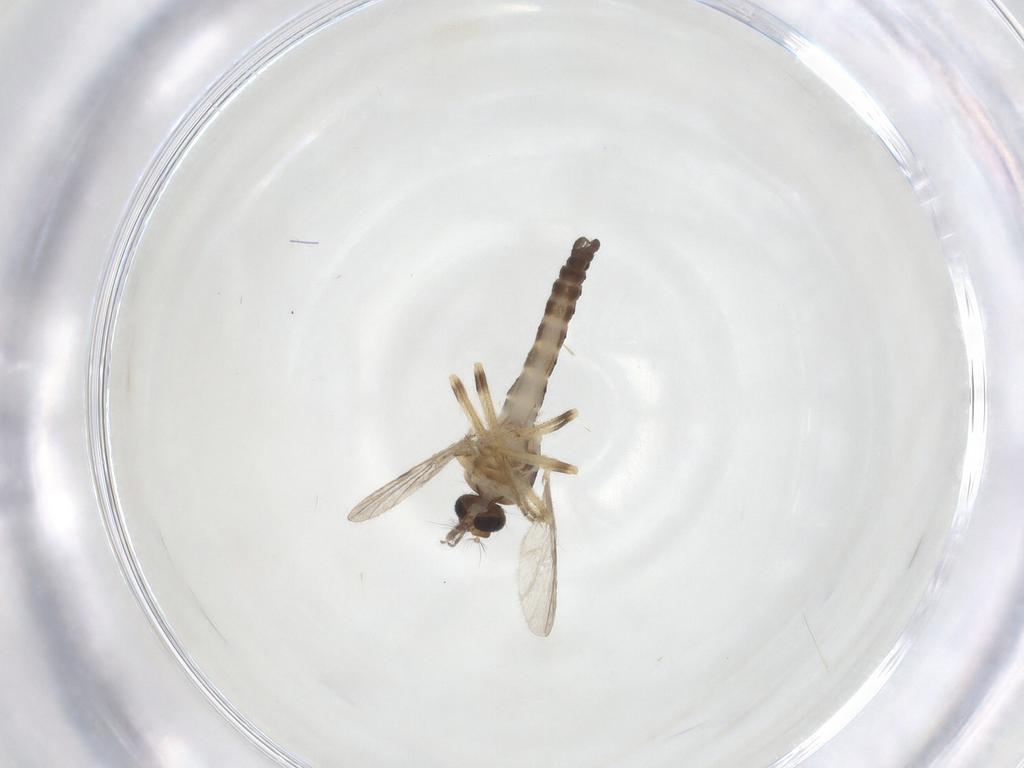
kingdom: Animalia
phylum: Arthropoda
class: Insecta
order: Diptera
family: Ceratopogonidae
